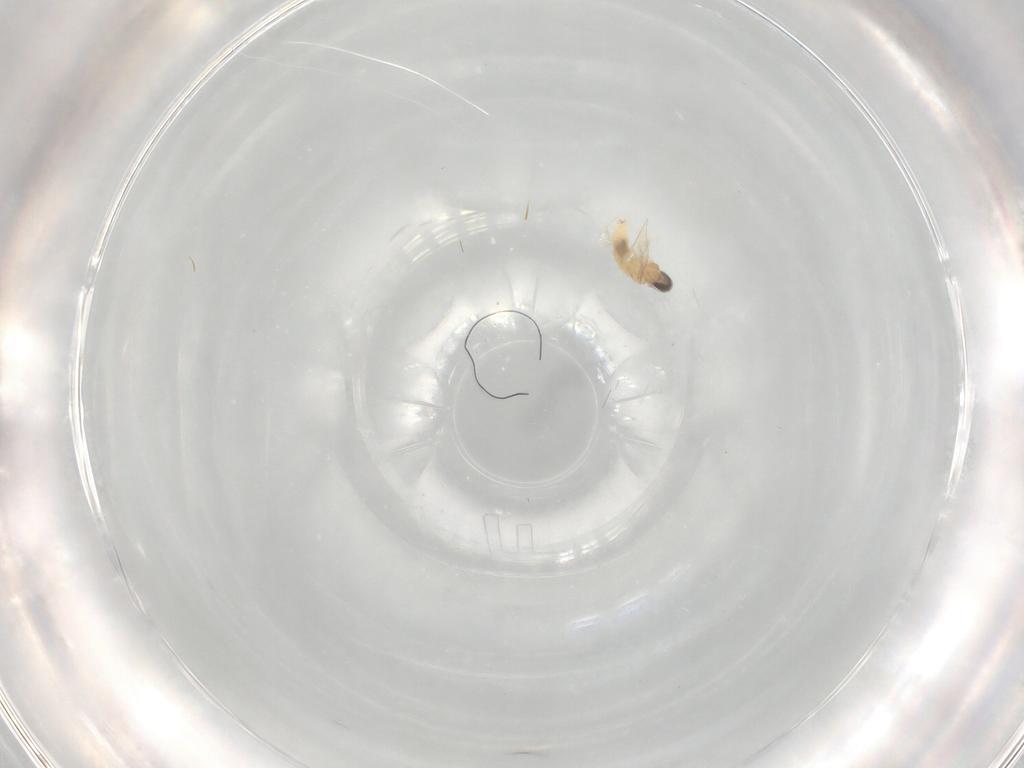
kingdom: Animalia
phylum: Arthropoda
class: Insecta
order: Diptera
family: Cecidomyiidae
